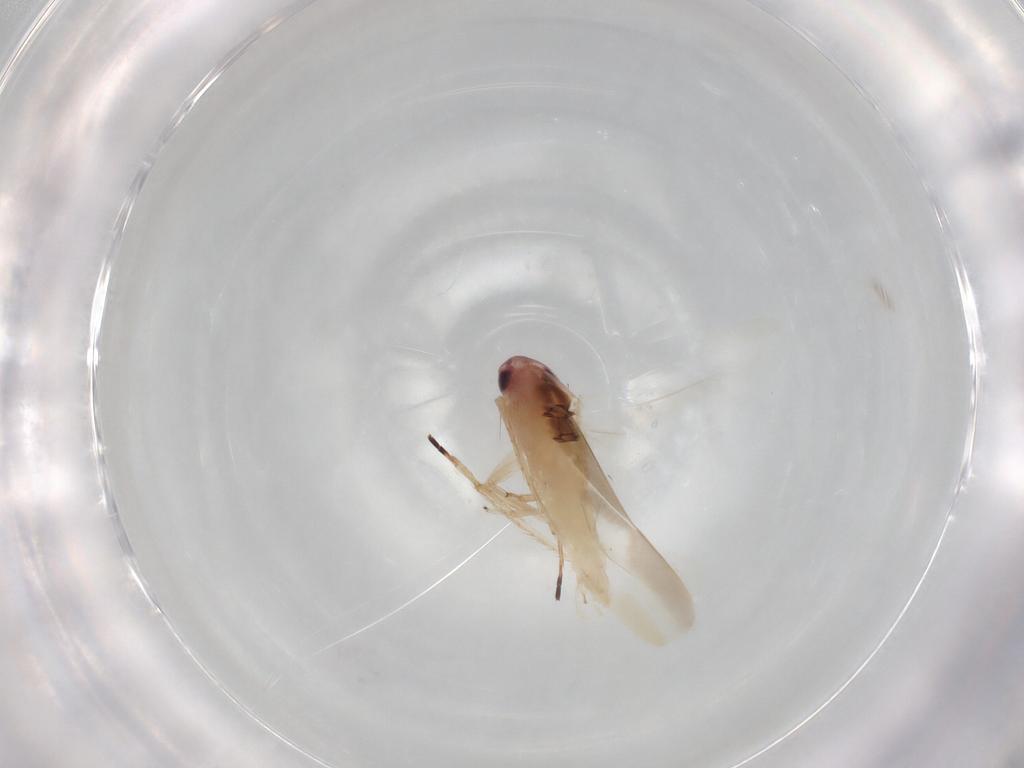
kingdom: Animalia
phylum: Arthropoda
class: Insecta
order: Hemiptera
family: Cicadellidae
